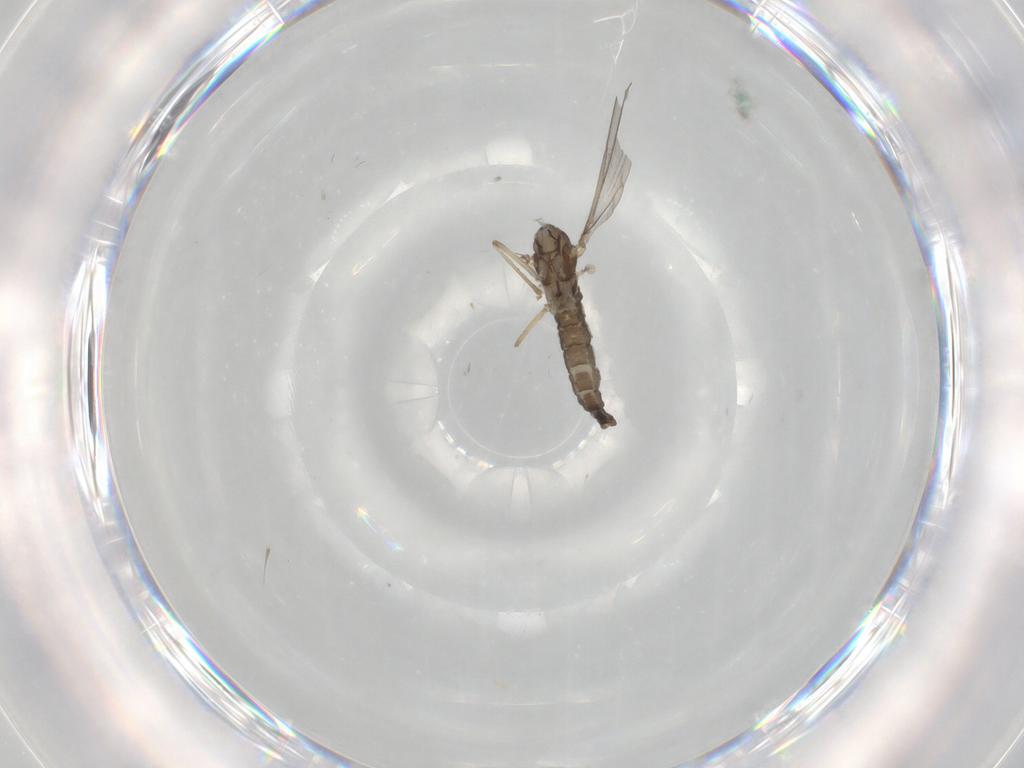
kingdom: Animalia
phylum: Arthropoda
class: Insecta
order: Diptera
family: Cecidomyiidae
